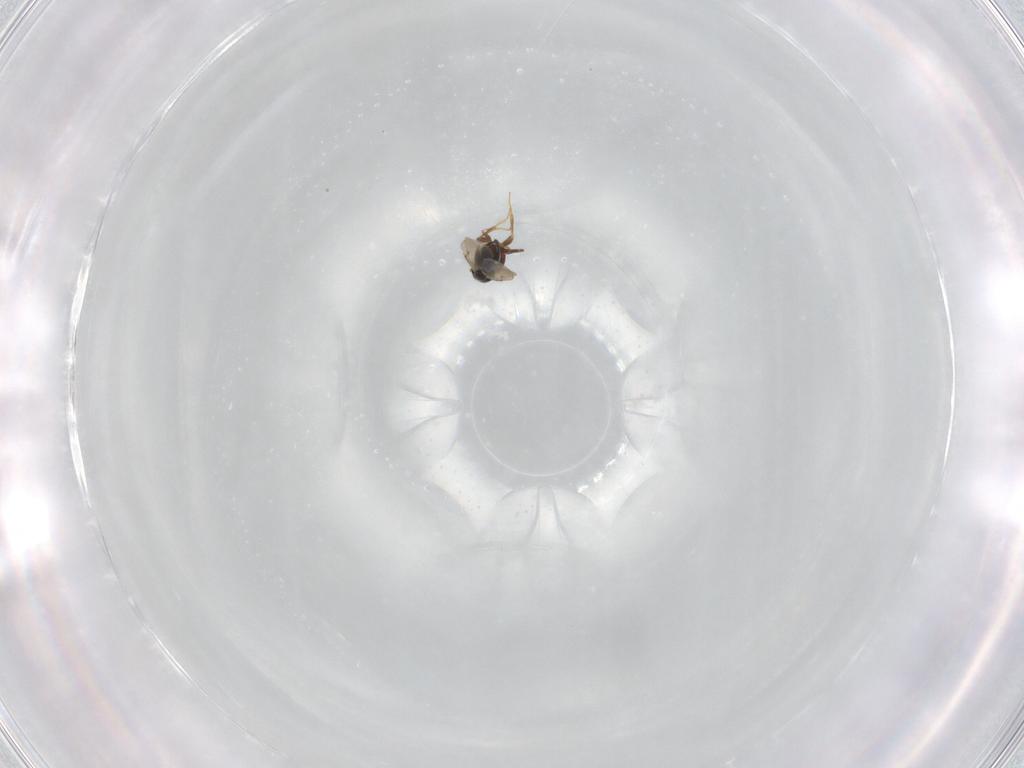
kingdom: Animalia
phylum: Arthropoda
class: Insecta
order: Hymenoptera
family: Ceraphronidae
